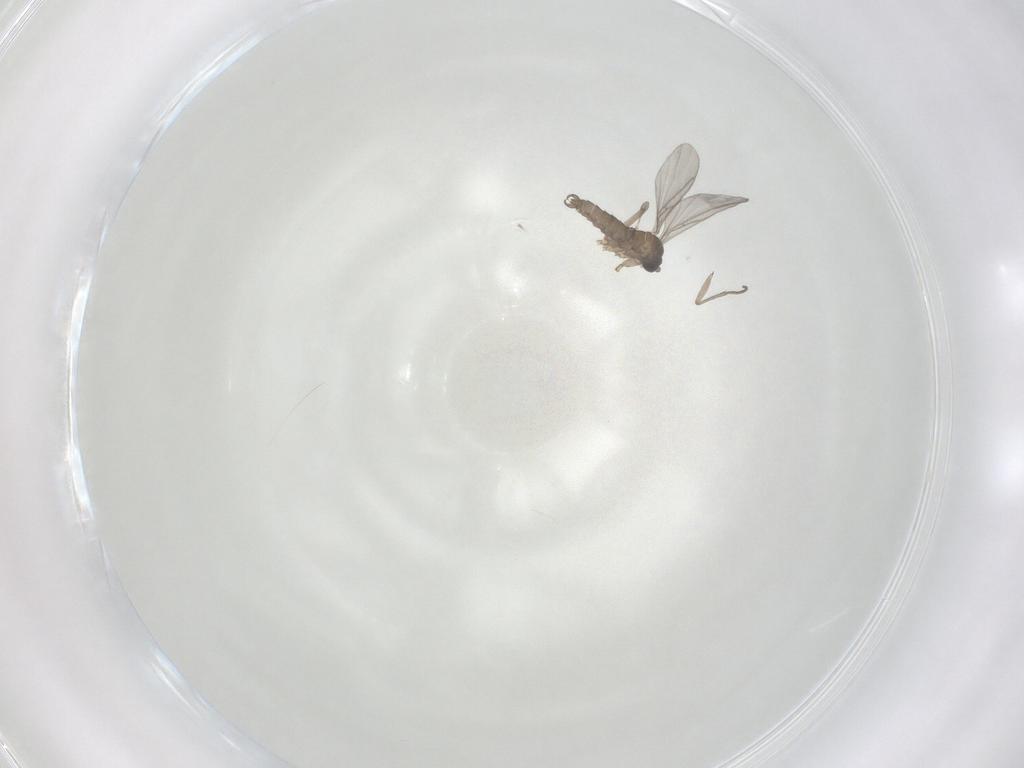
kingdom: Animalia
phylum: Arthropoda
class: Insecta
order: Diptera
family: Sciaridae
